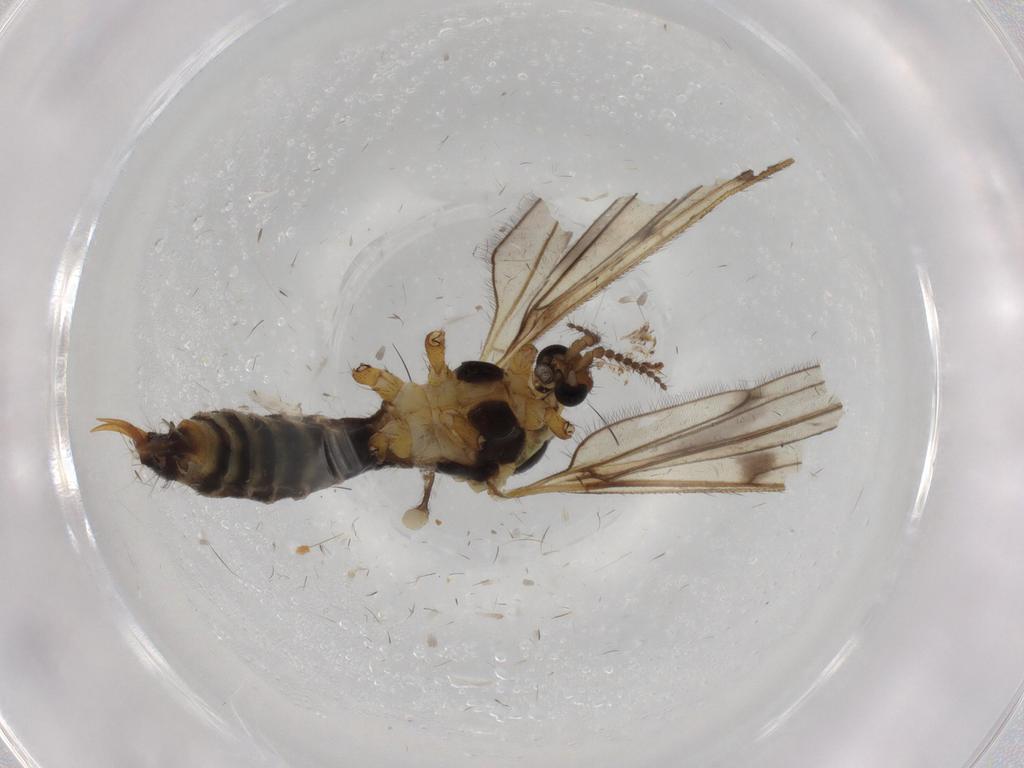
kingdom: Animalia
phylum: Arthropoda
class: Insecta
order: Diptera
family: Limoniidae
